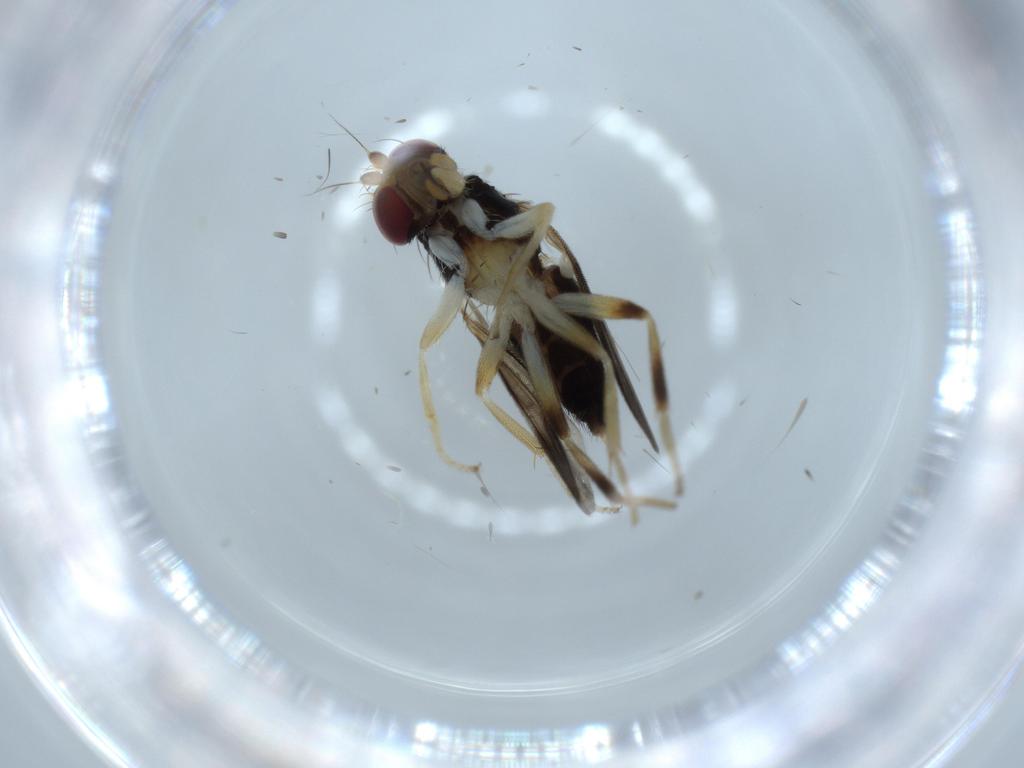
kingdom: Animalia
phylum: Arthropoda
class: Insecta
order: Diptera
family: Clusiidae
